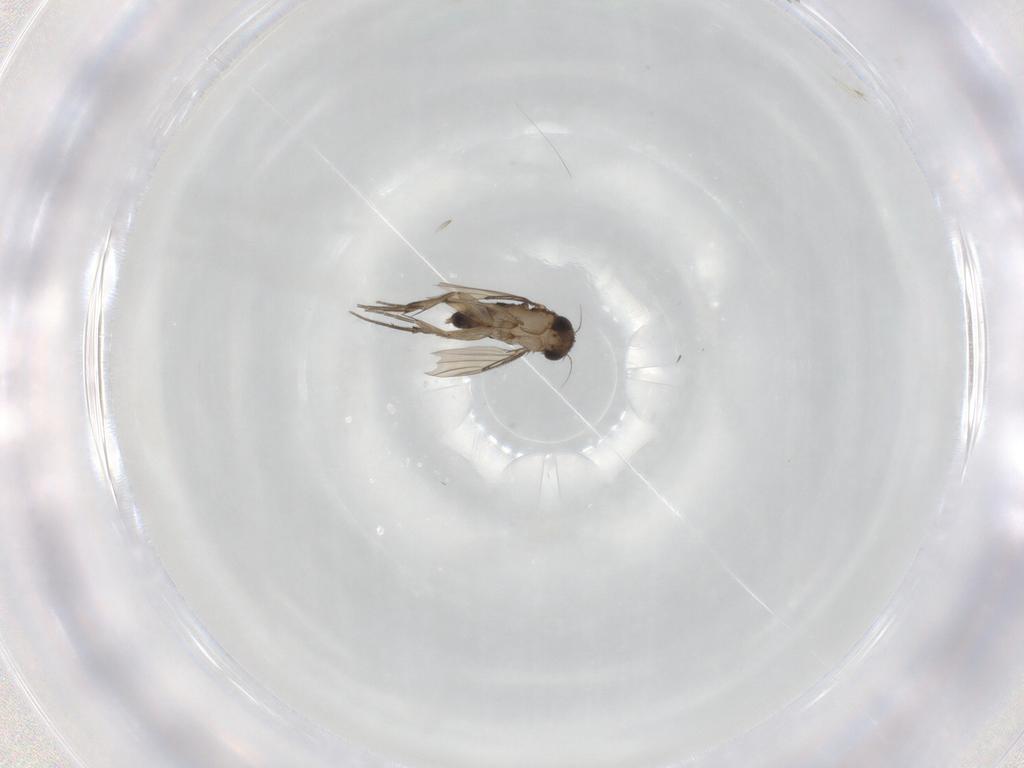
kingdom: Animalia
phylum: Arthropoda
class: Insecta
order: Diptera
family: Phoridae
